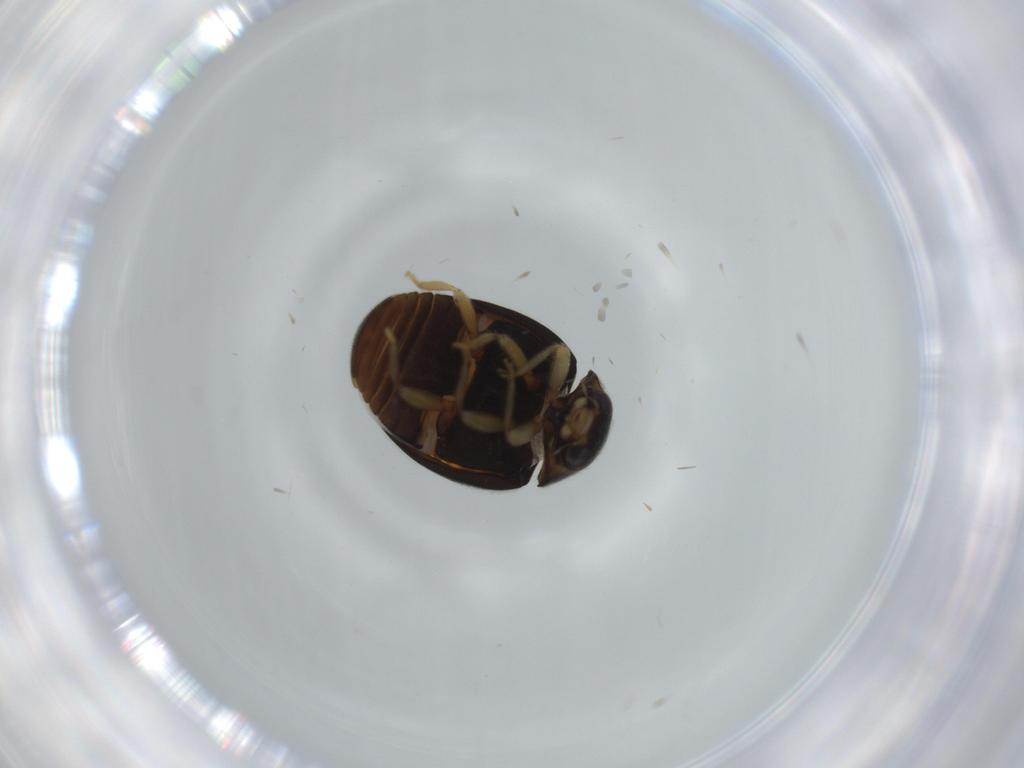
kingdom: Animalia
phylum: Arthropoda
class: Insecta
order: Coleoptera
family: Coccinellidae
